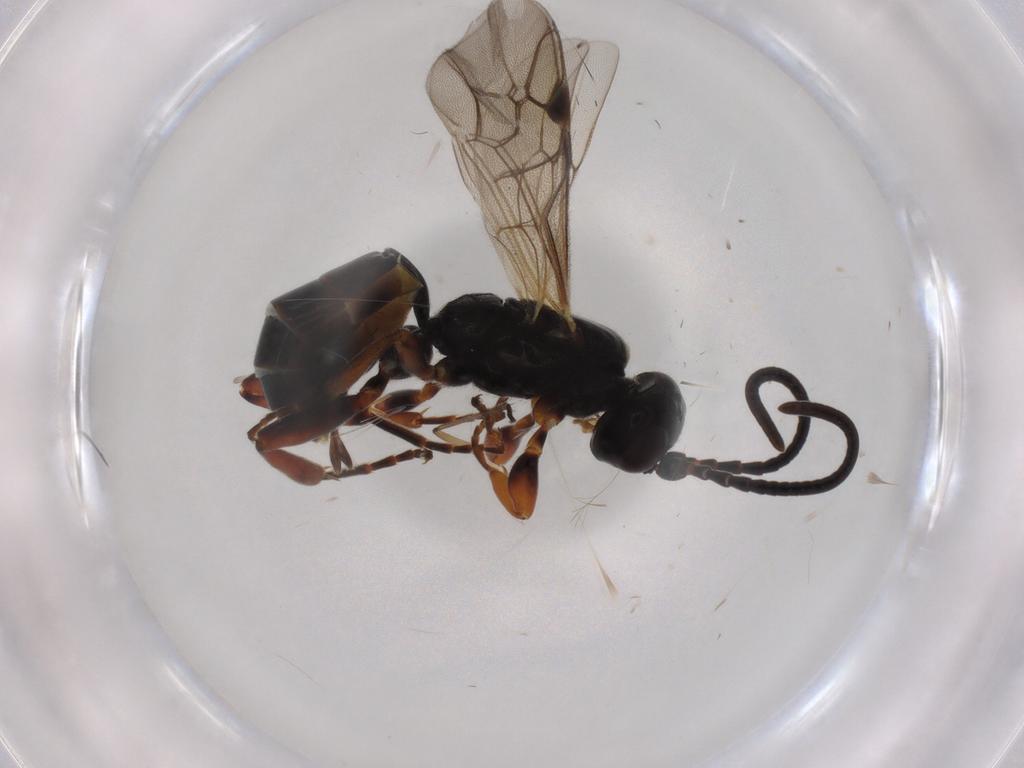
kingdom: Animalia
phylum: Arthropoda
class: Insecta
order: Hymenoptera
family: Ichneumonidae
